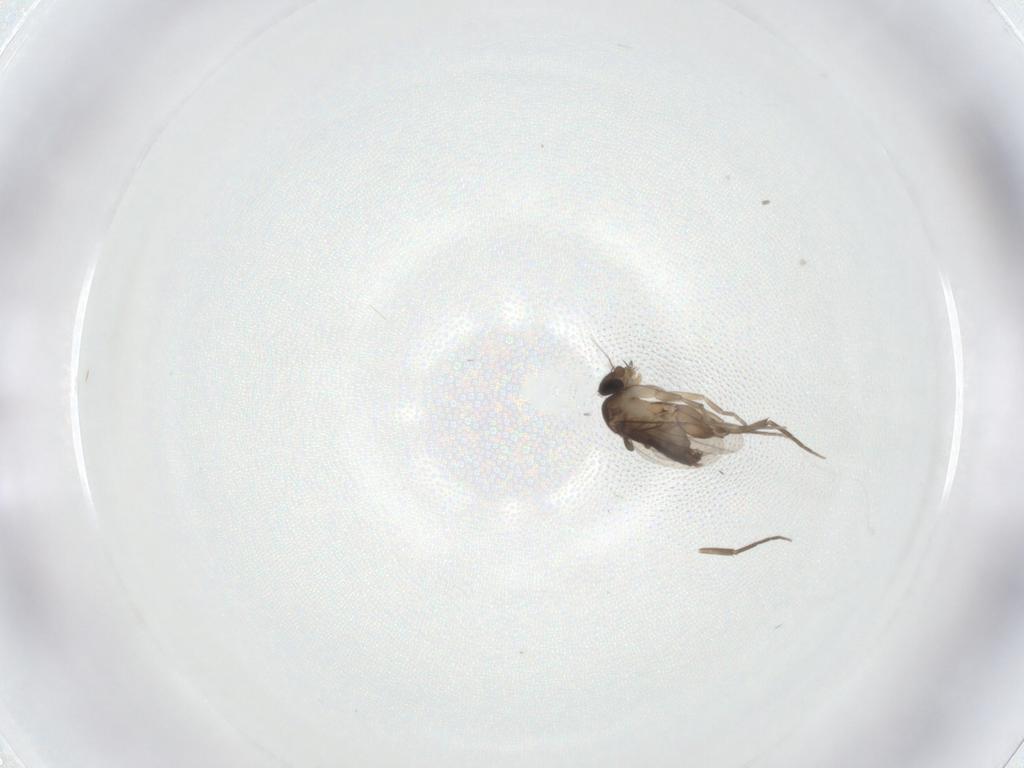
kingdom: Animalia
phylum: Arthropoda
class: Insecta
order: Diptera
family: Phoridae
